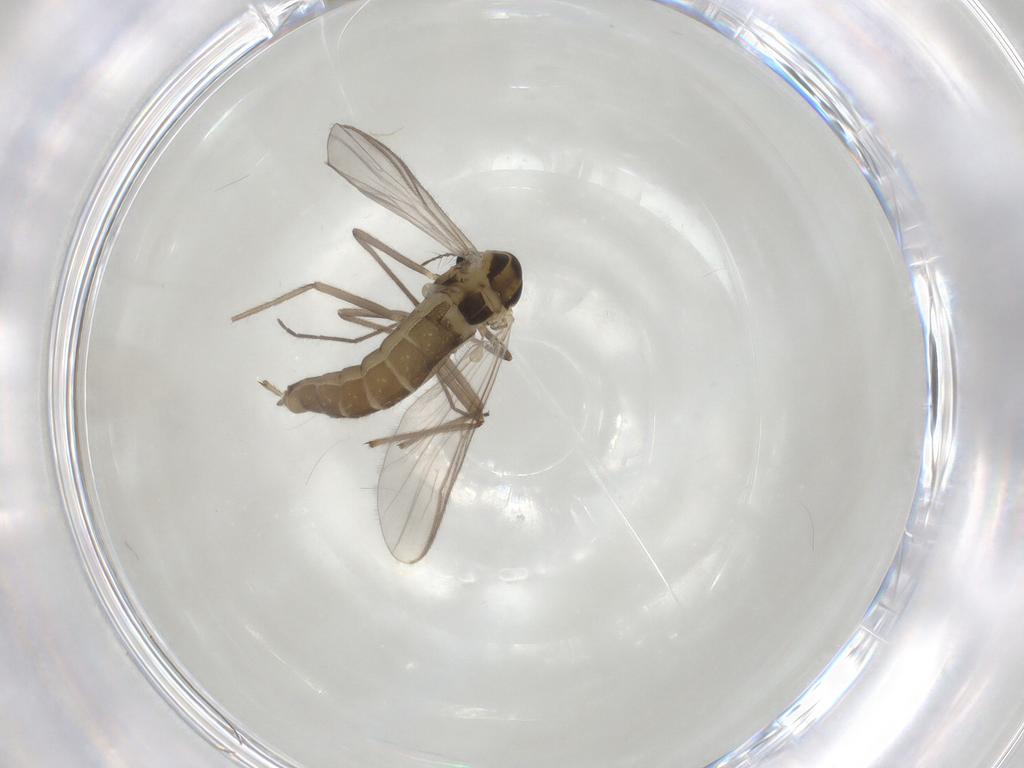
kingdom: Animalia
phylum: Arthropoda
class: Insecta
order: Diptera
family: Chironomidae
